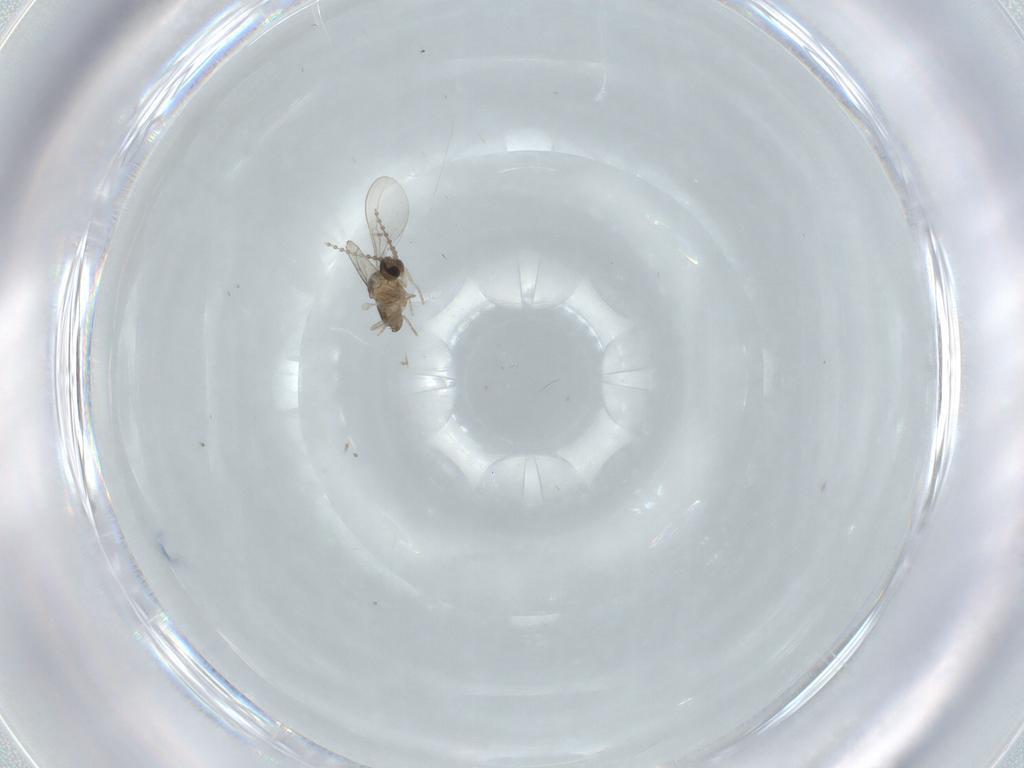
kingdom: Animalia
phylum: Arthropoda
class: Insecta
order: Diptera
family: Cecidomyiidae
